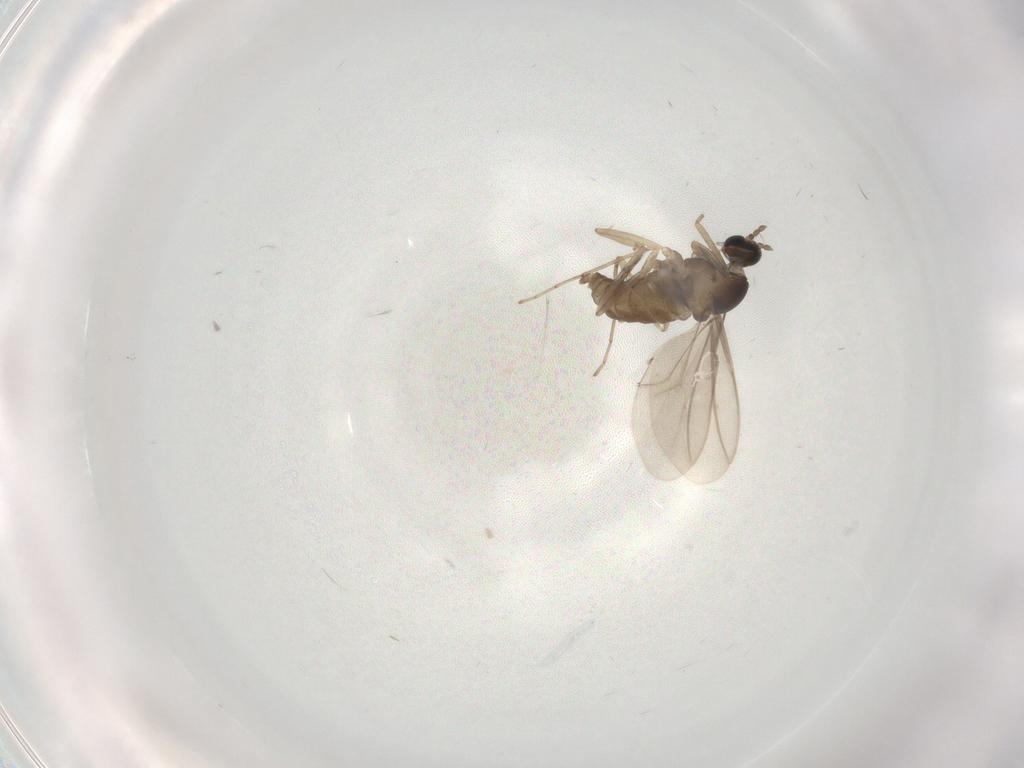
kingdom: Animalia
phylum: Arthropoda
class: Insecta
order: Diptera
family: Cecidomyiidae
